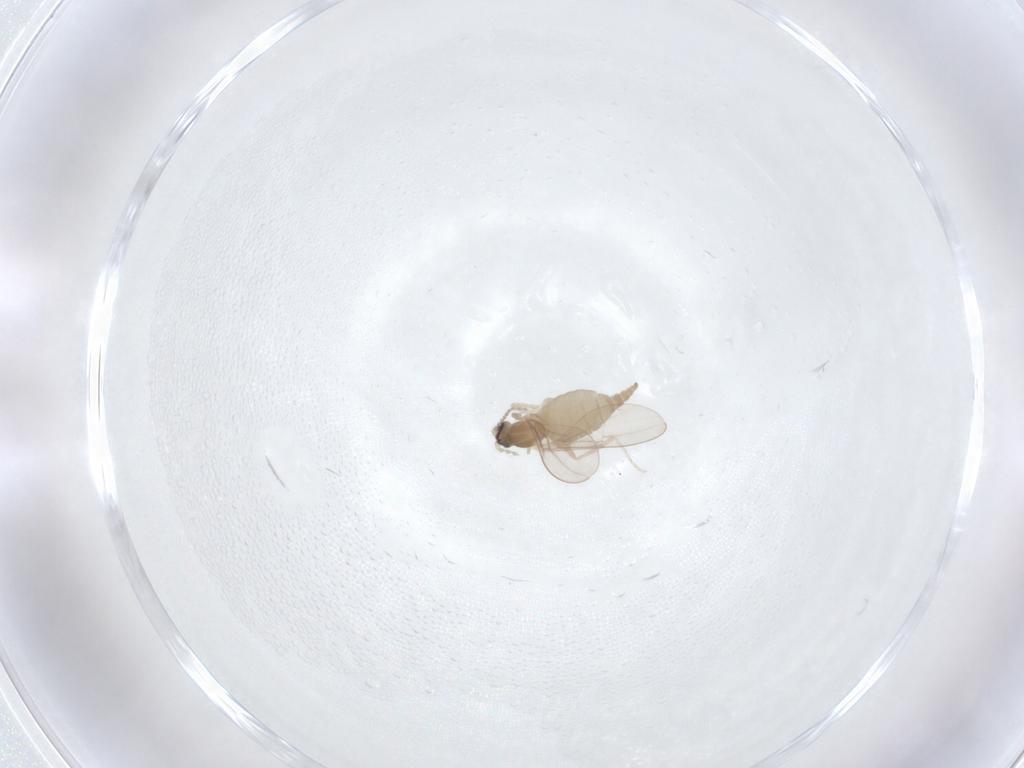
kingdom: Animalia
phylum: Arthropoda
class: Insecta
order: Diptera
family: Cecidomyiidae
